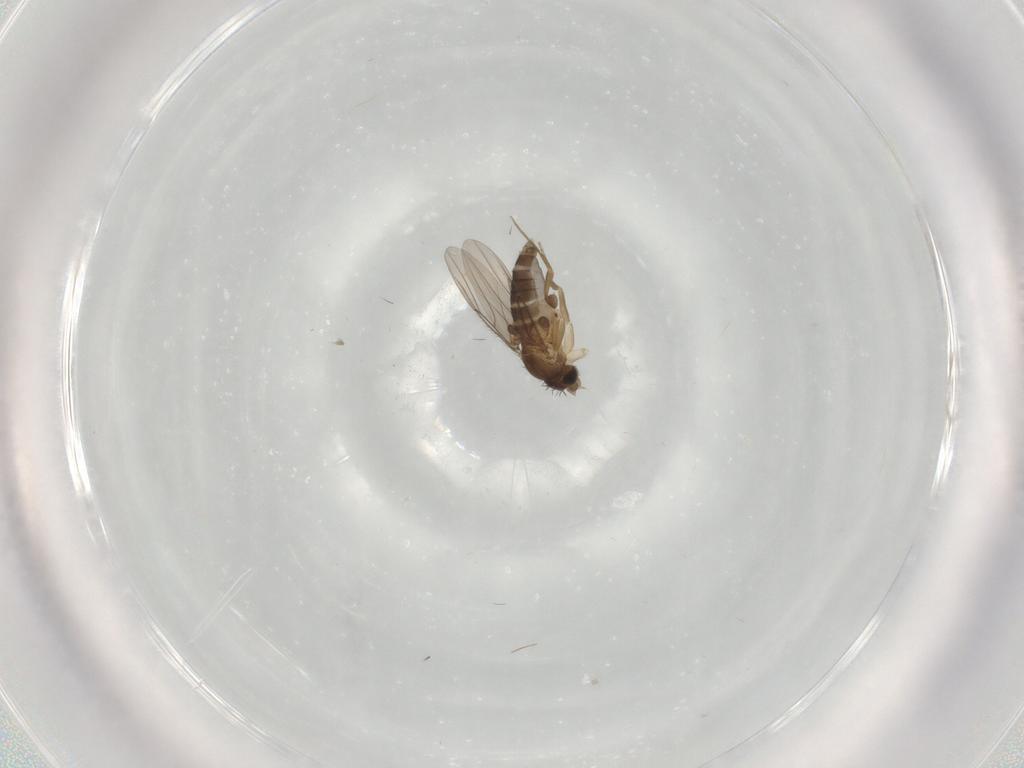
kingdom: Animalia
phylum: Arthropoda
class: Insecta
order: Diptera
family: Phoridae
